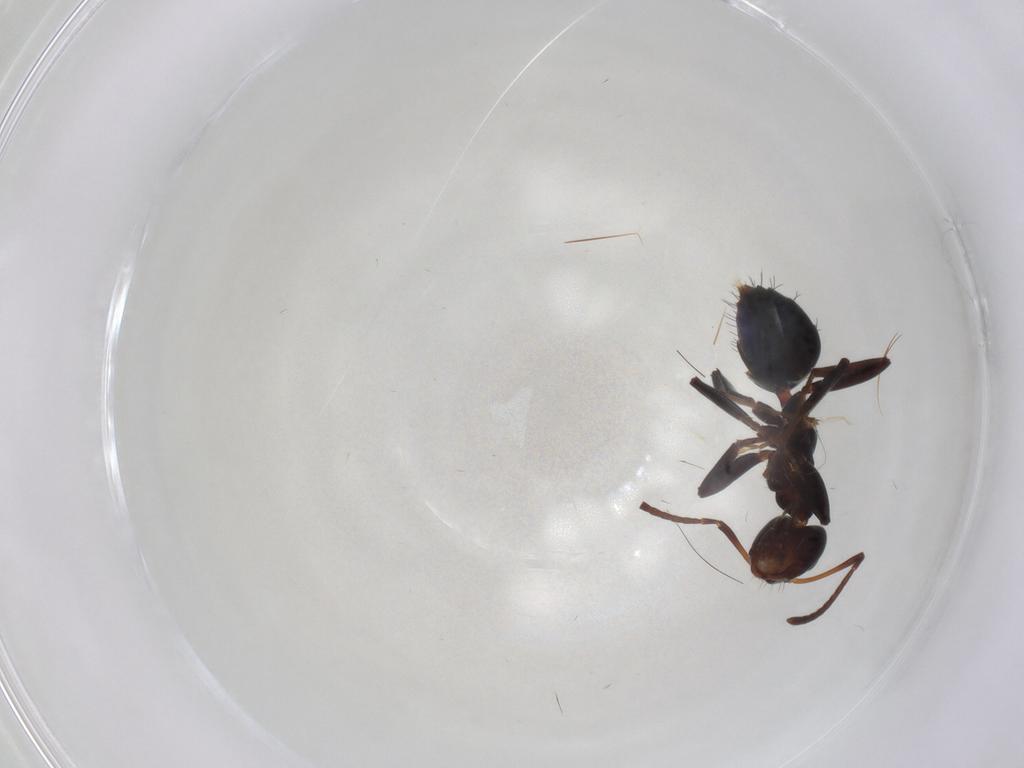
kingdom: Animalia
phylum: Arthropoda
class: Insecta
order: Hymenoptera
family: Formicidae
